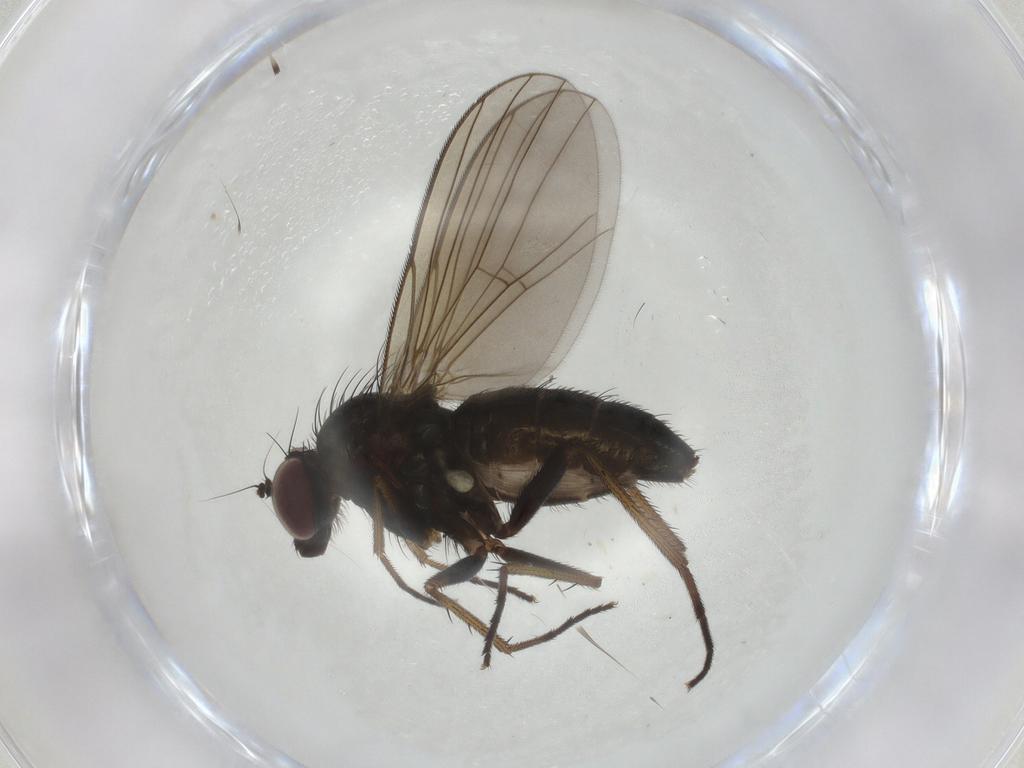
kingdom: Animalia
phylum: Arthropoda
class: Insecta
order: Diptera
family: Dolichopodidae
